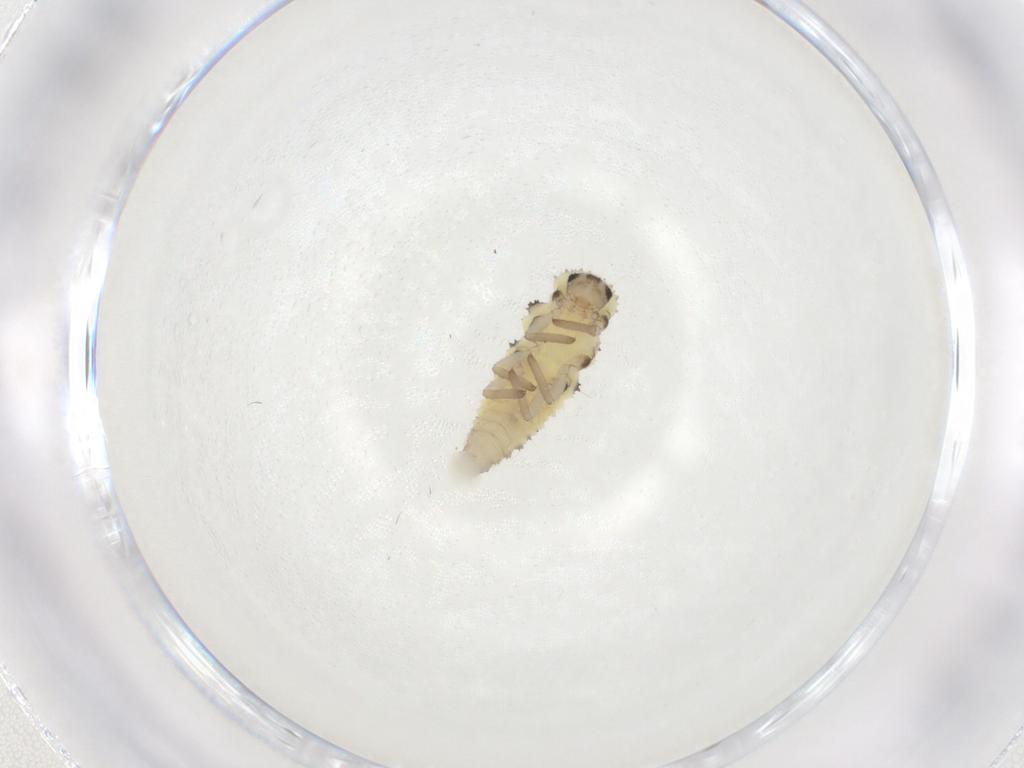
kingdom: Animalia
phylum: Arthropoda
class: Insecta
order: Coleoptera
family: Coccinellidae
